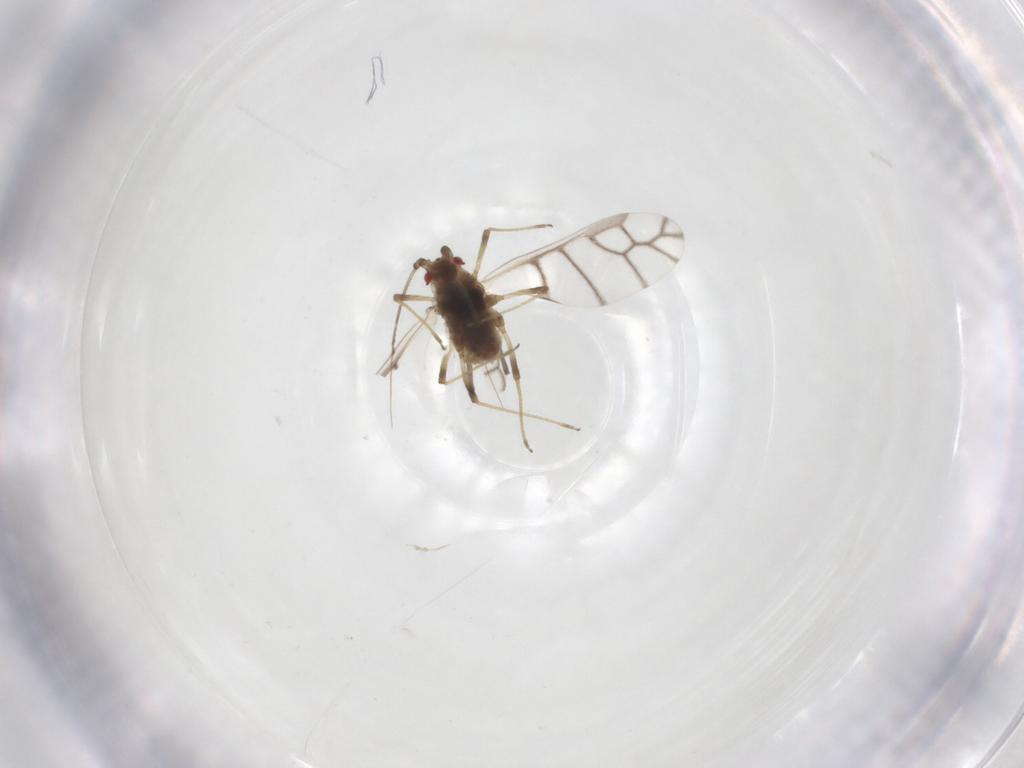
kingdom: Animalia
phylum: Arthropoda
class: Insecta
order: Hemiptera
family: Aphididae
